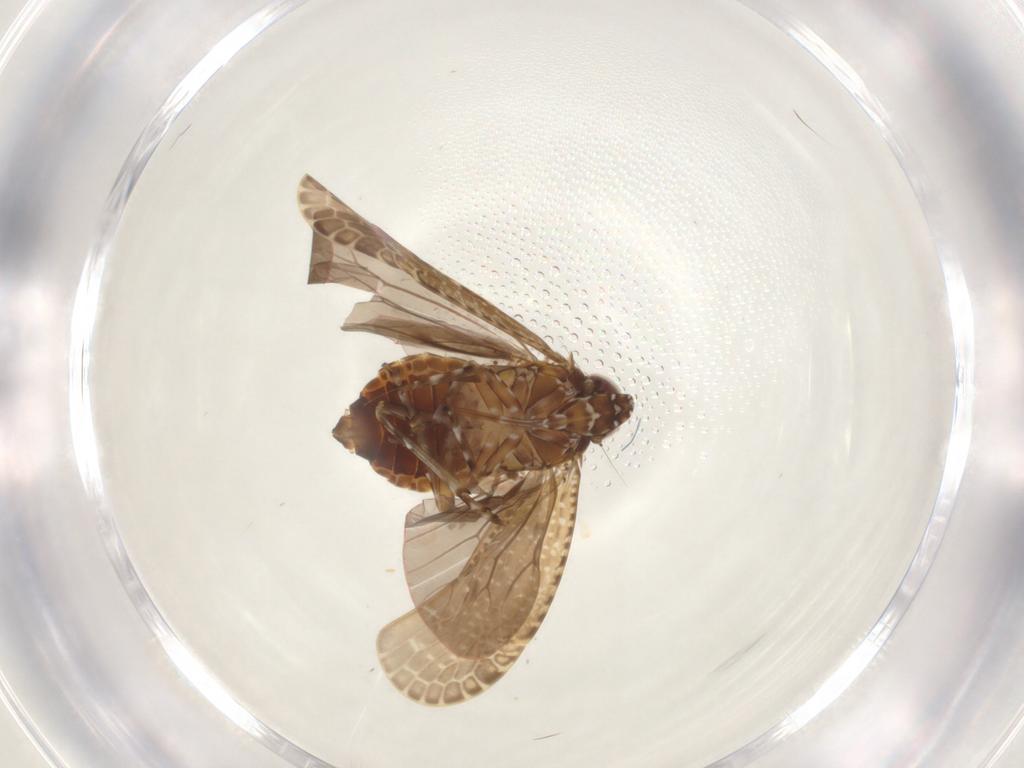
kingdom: Animalia
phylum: Arthropoda
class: Insecta
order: Hemiptera
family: Achilidae
